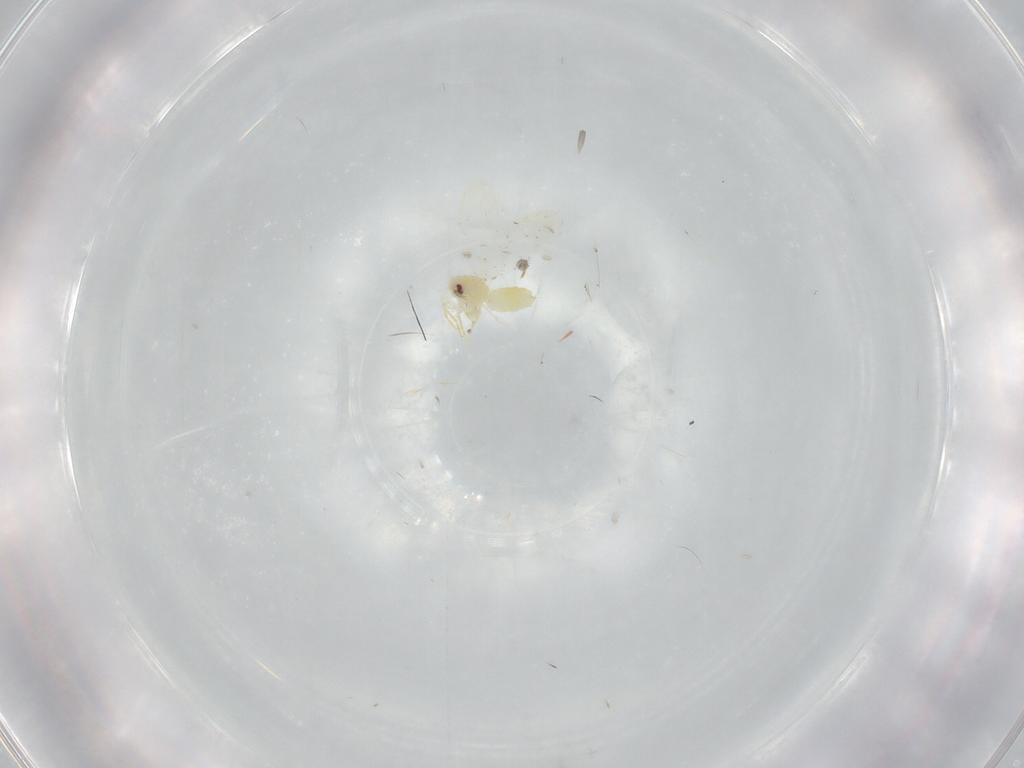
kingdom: Animalia
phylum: Arthropoda
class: Insecta
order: Hemiptera
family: Aleyrodidae
